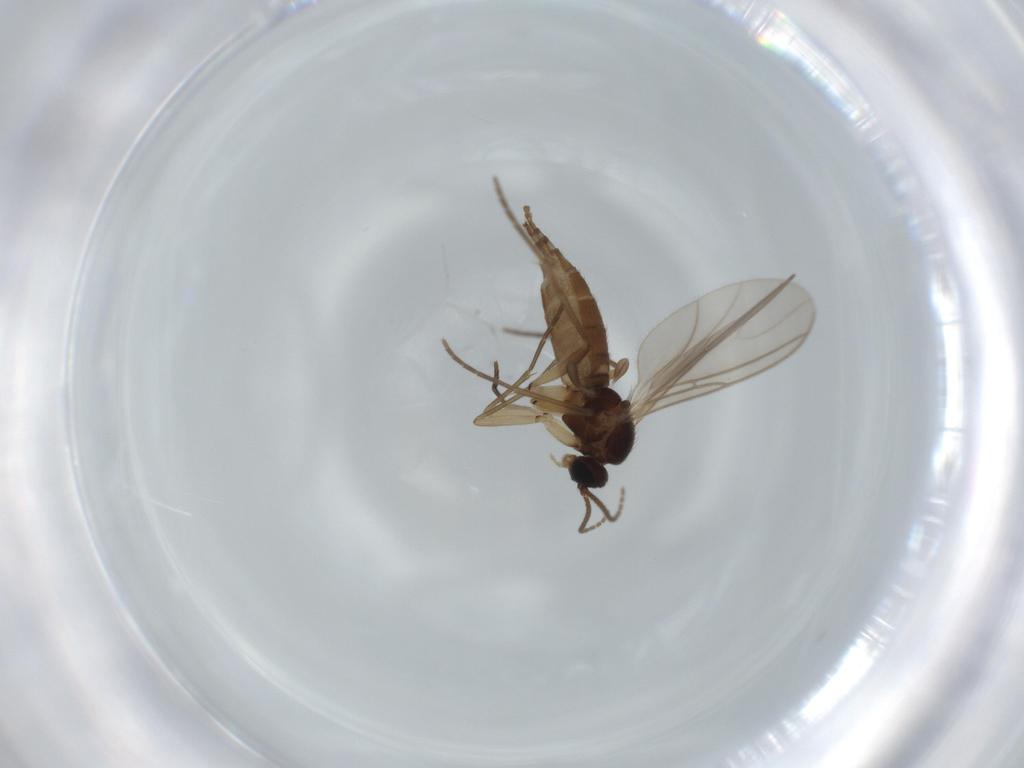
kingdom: Animalia
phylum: Arthropoda
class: Insecta
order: Diptera
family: Sciaridae
